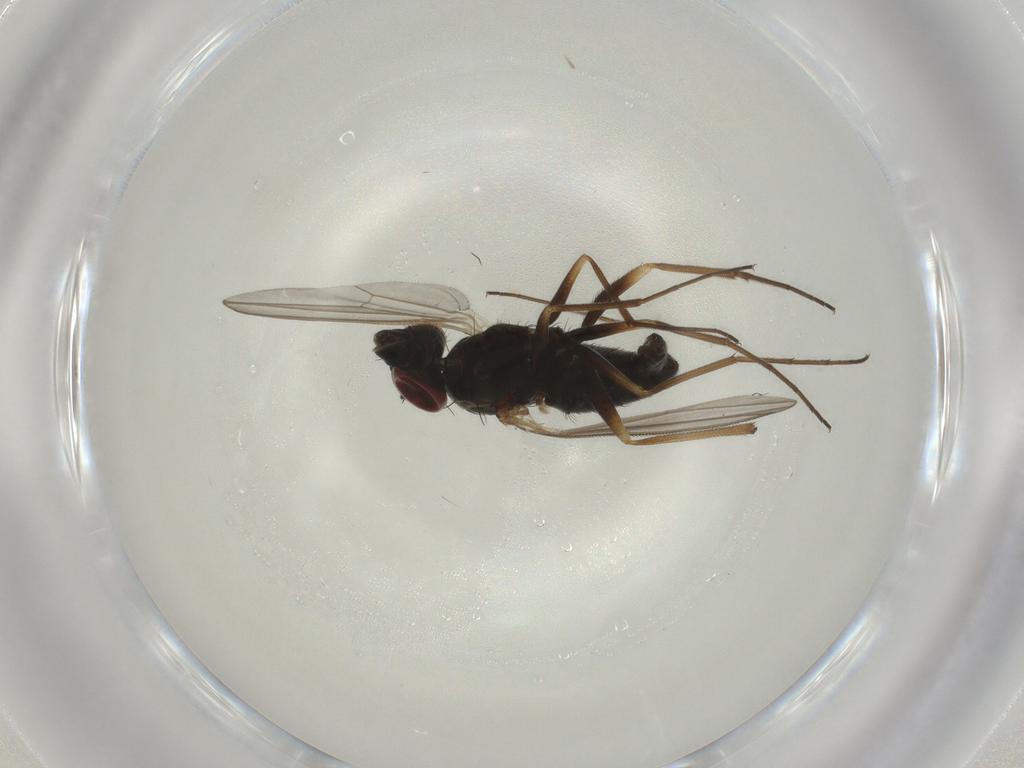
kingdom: Animalia
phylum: Arthropoda
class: Insecta
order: Diptera
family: Dolichopodidae
